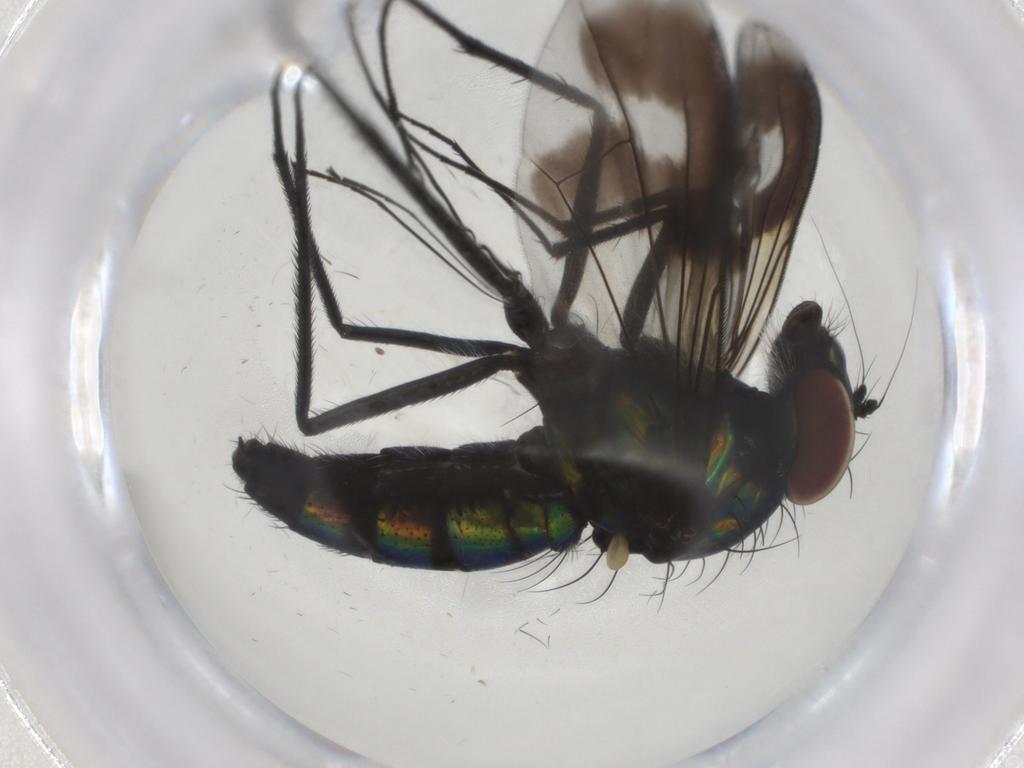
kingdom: Animalia
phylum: Arthropoda
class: Insecta
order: Diptera
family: Dolichopodidae
